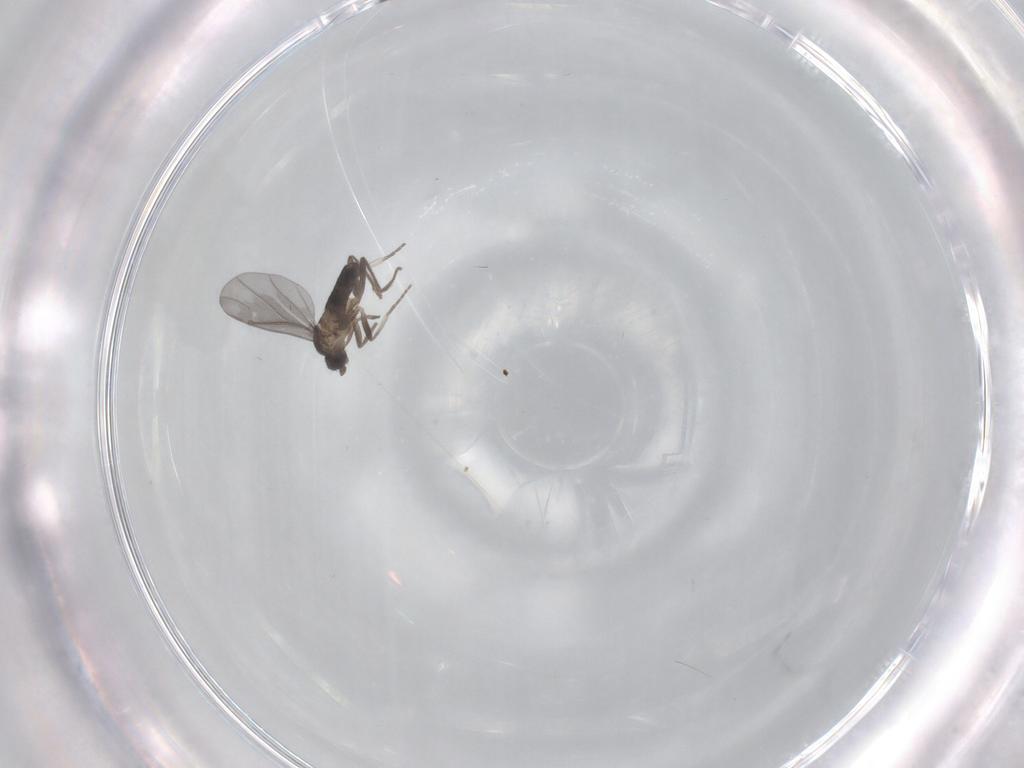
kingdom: Animalia
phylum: Arthropoda
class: Insecta
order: Diptera
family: Phoridae
